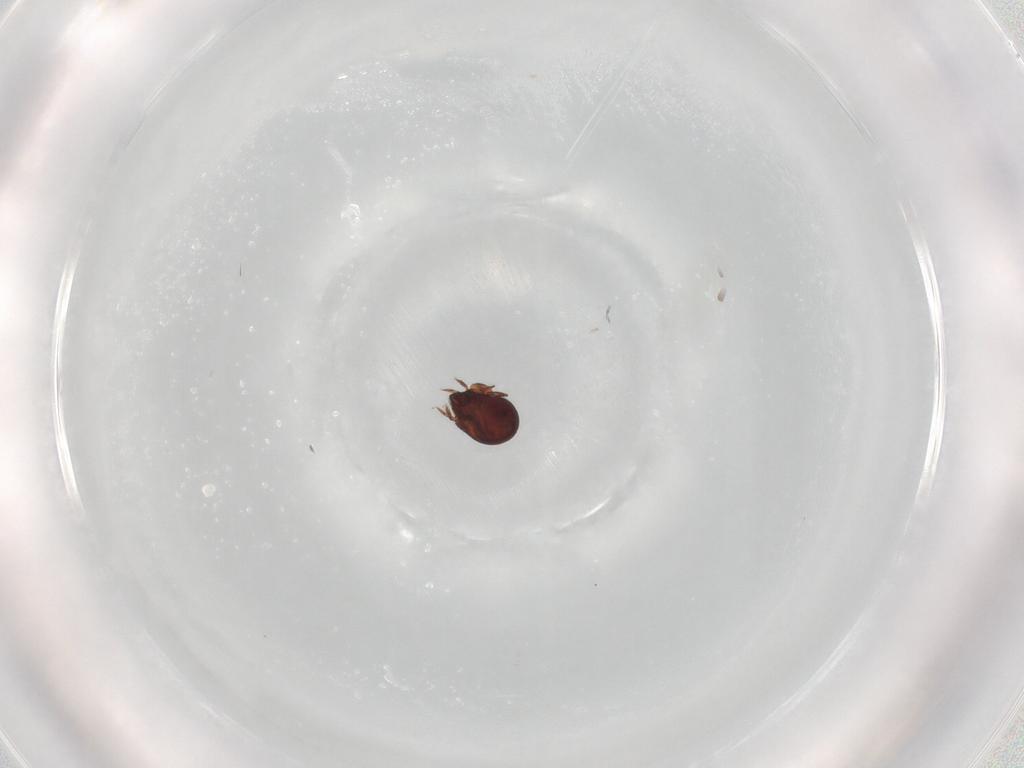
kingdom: Animalia
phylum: Arthropoda
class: Arachnida
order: Sarcoptiformes
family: Humerobatidae
